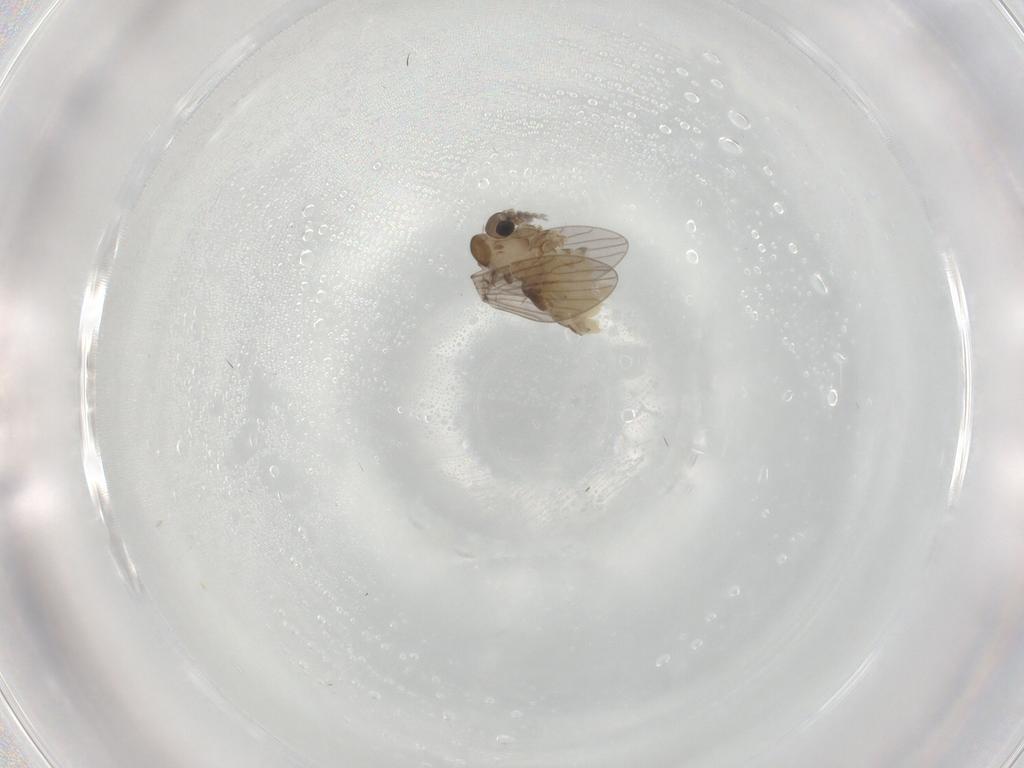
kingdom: Animalia
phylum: Arthropoda
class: Insecta
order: Diptera
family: Psychodidae
